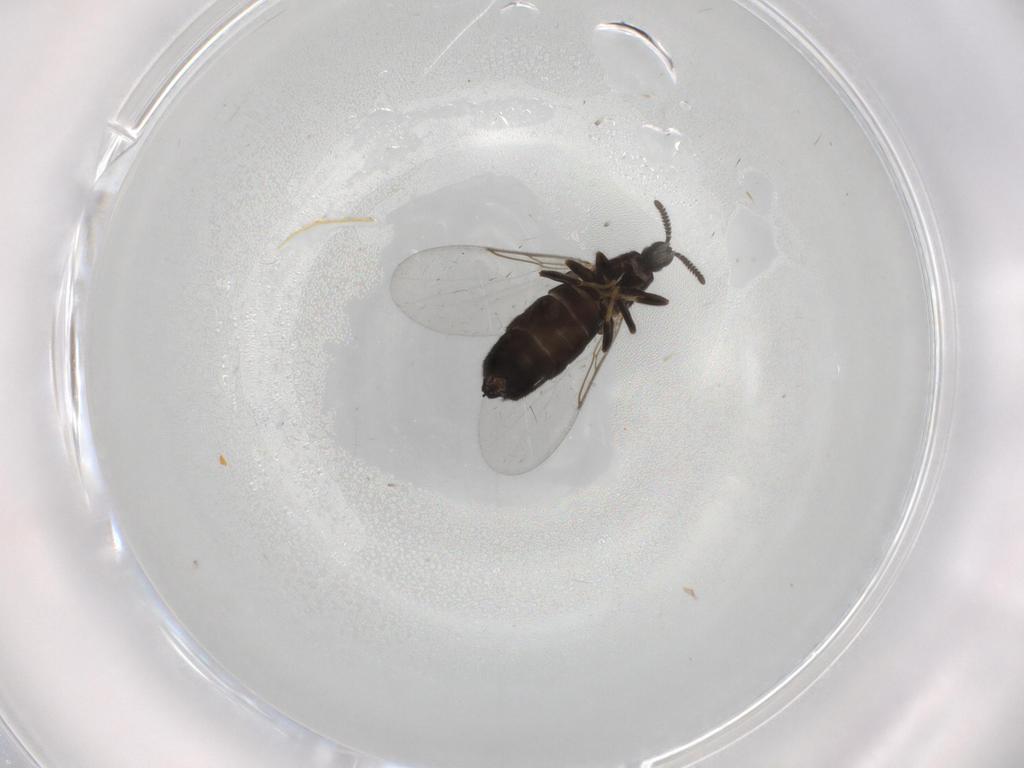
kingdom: Animalia
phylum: Arthropoda
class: Insecta
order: Diptera
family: Scatopsidae
